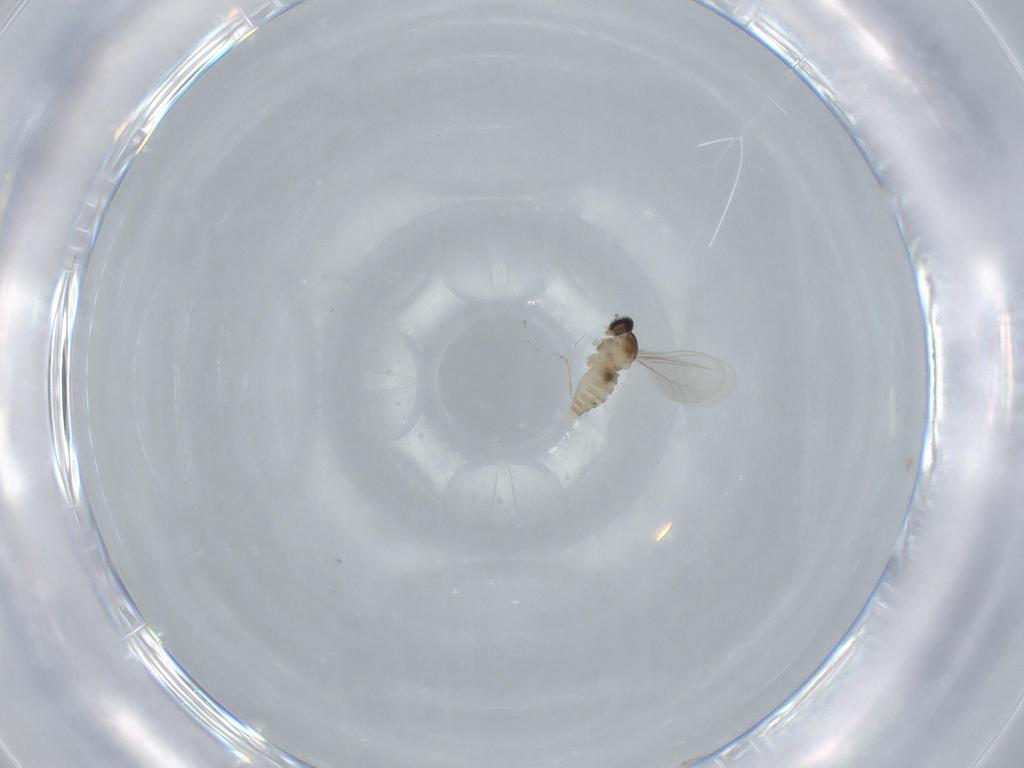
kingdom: Animalia
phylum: Arthropoda
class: Insecta
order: Diptera
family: Cecidomyiidae
